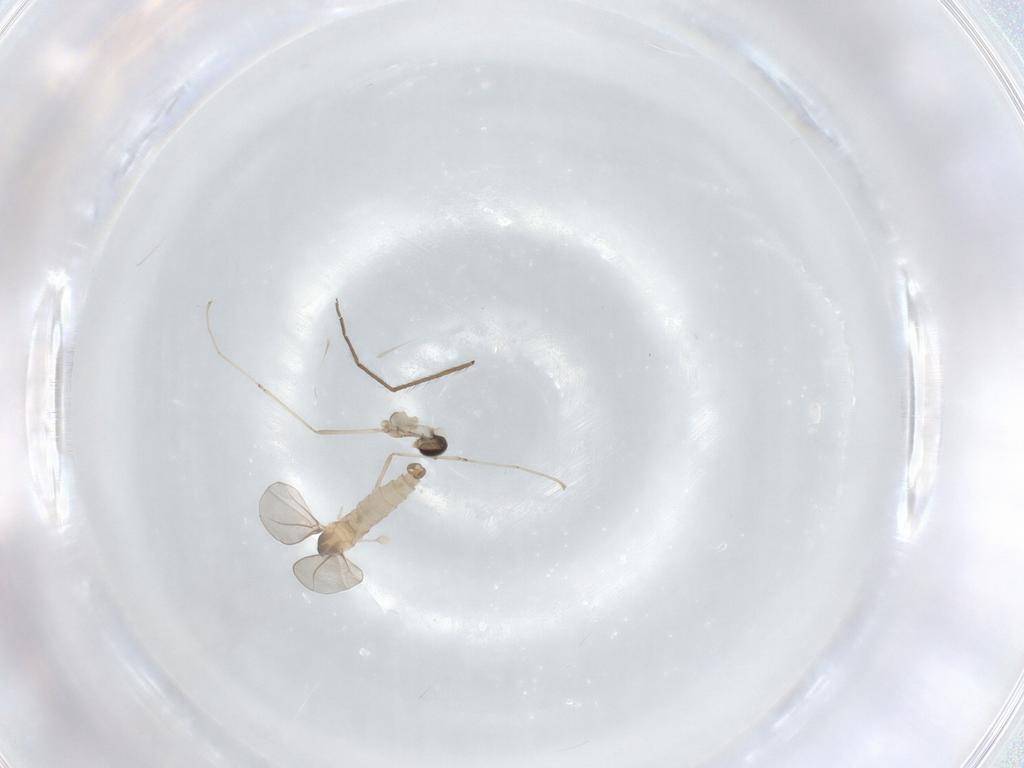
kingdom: Animalia
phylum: Arthropoda
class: Insecta
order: Diptera
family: Chironomidae
